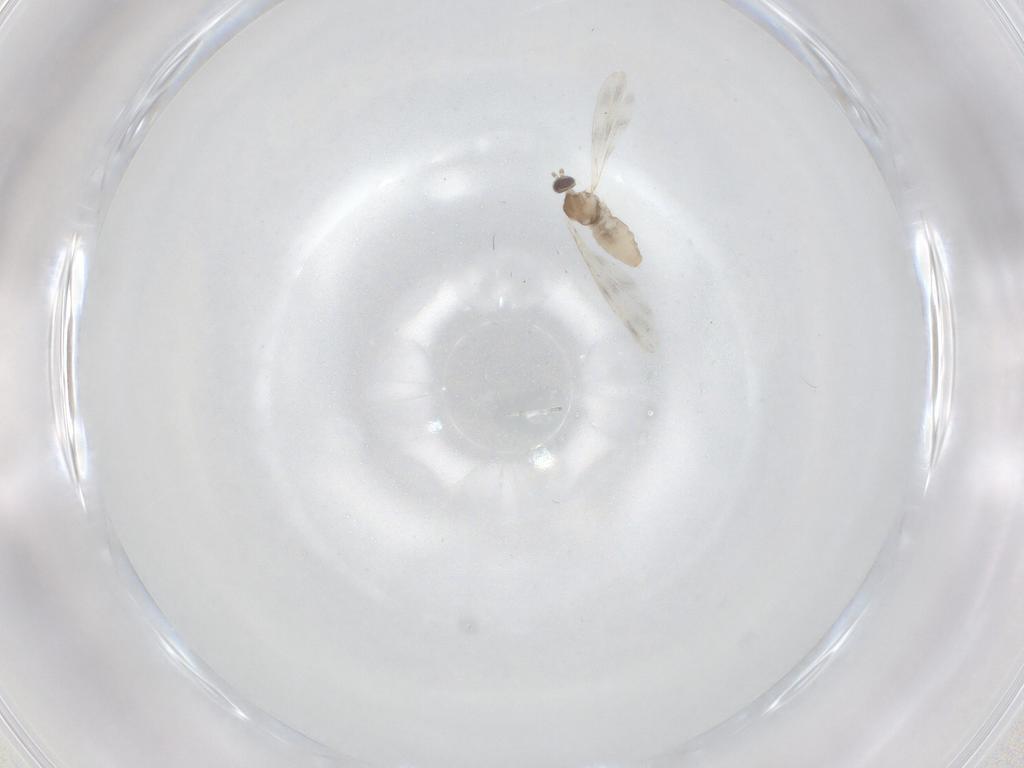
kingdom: Animalia
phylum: Arthropoda
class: Insecta
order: Diptera
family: Cecidomyiidae
